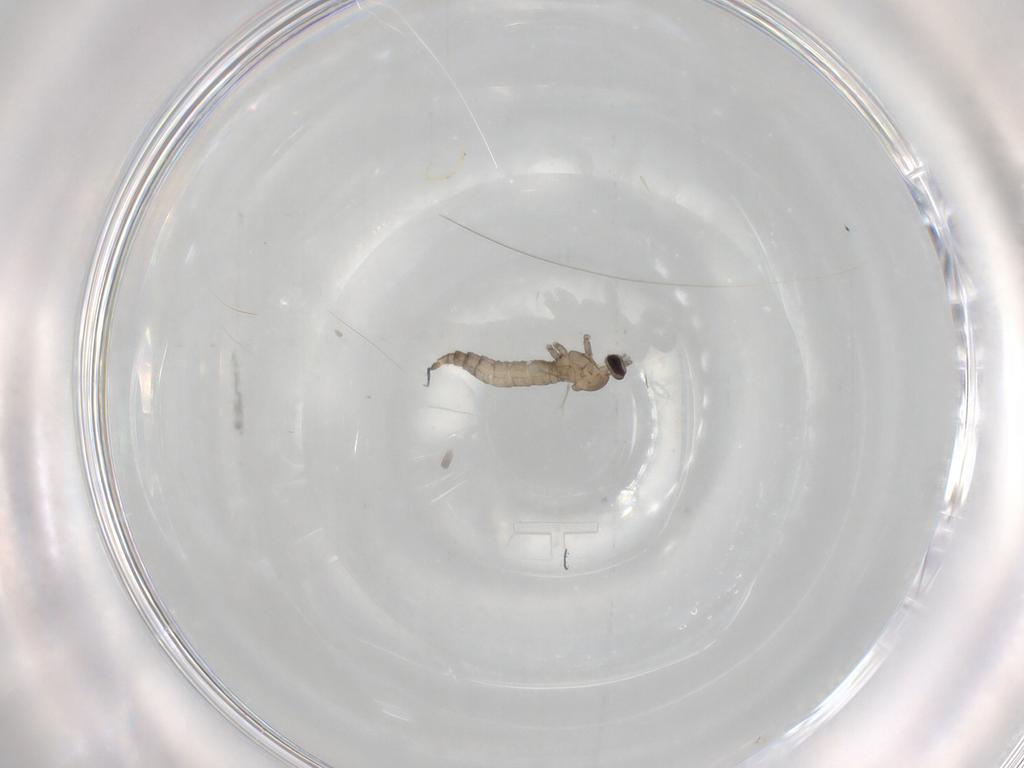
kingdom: Animalia
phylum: Arthropoda
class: Insecta
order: Diptera
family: Cecidomyiidae
